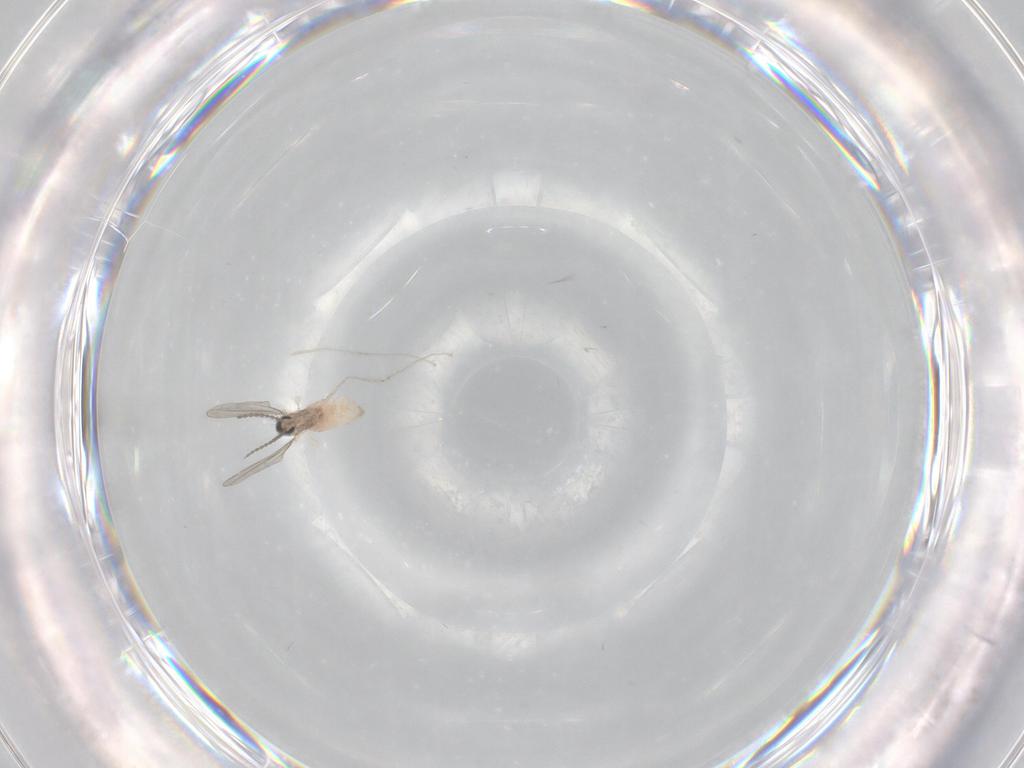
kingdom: Animalia
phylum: Arthropoda
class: Insecta
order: Diptera
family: Cecidomyiidae
